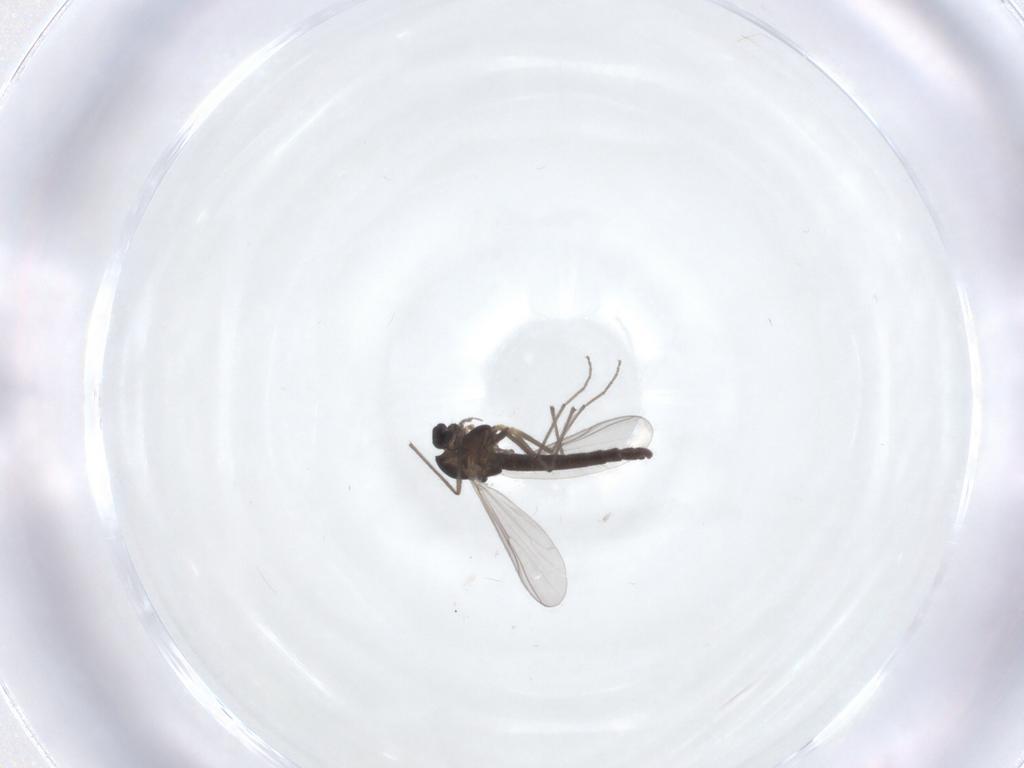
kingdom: Animalia
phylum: Arthropoda
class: Insecta
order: Diptera
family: Chironomidae
